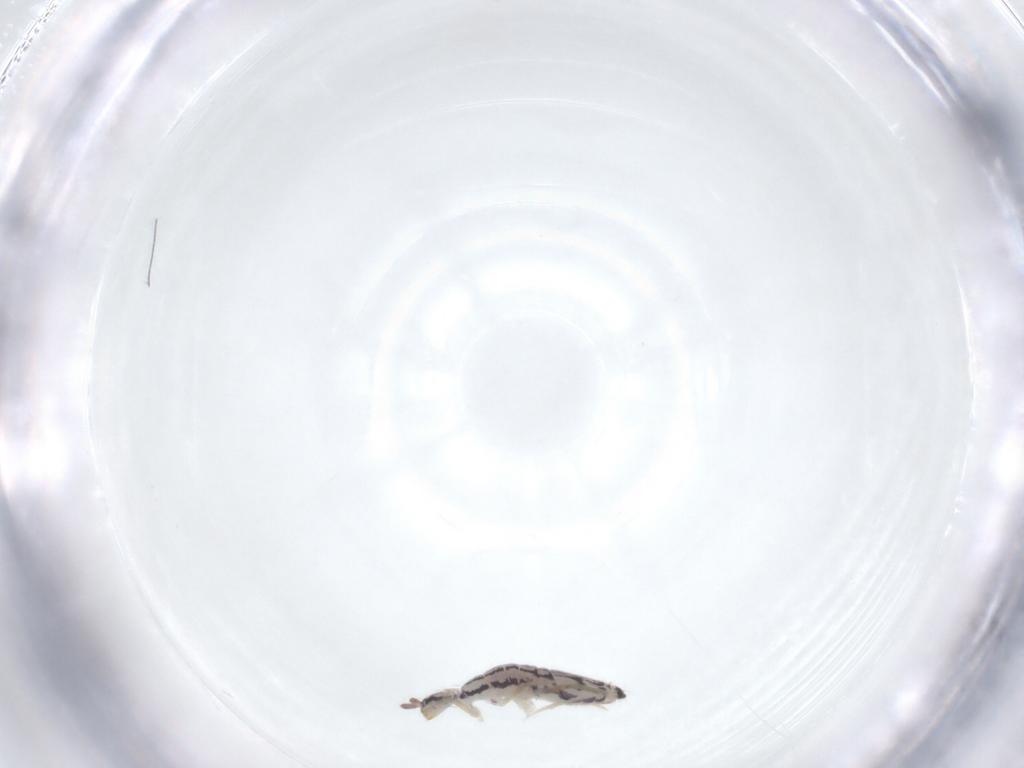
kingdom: Animalia
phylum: Arthropoda
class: Collembola
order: Entomobryomorpha
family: Entomobryidae
